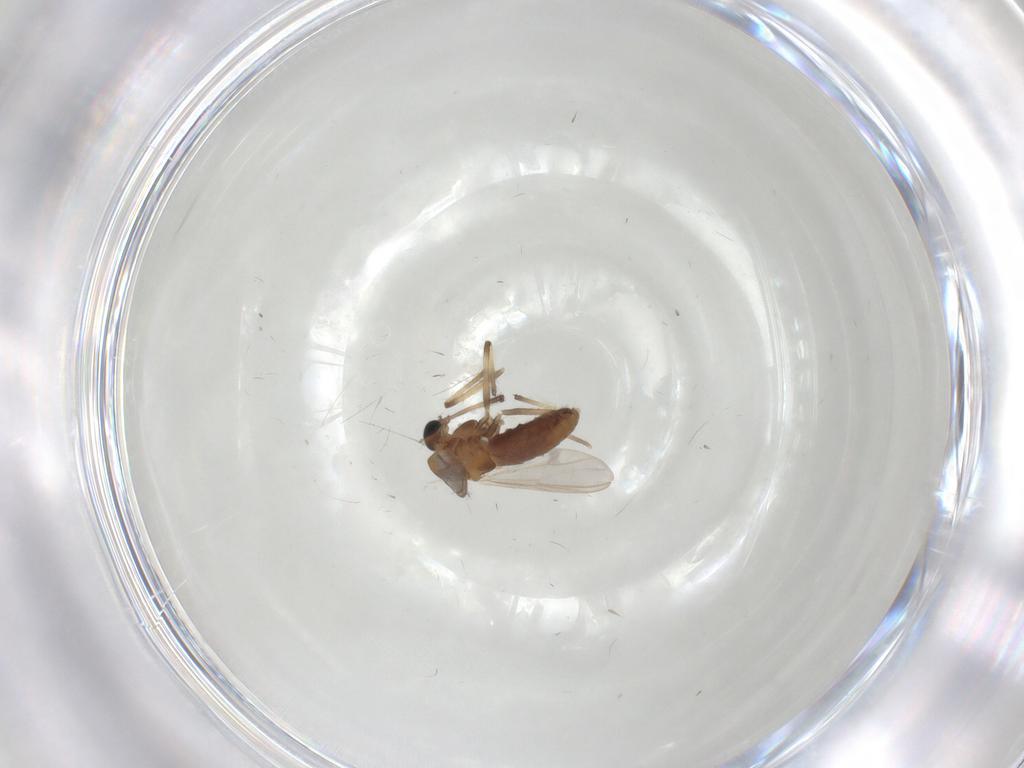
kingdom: Animalia
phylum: Arthropoda
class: Insecta
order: Diptera
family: Chironomidae
